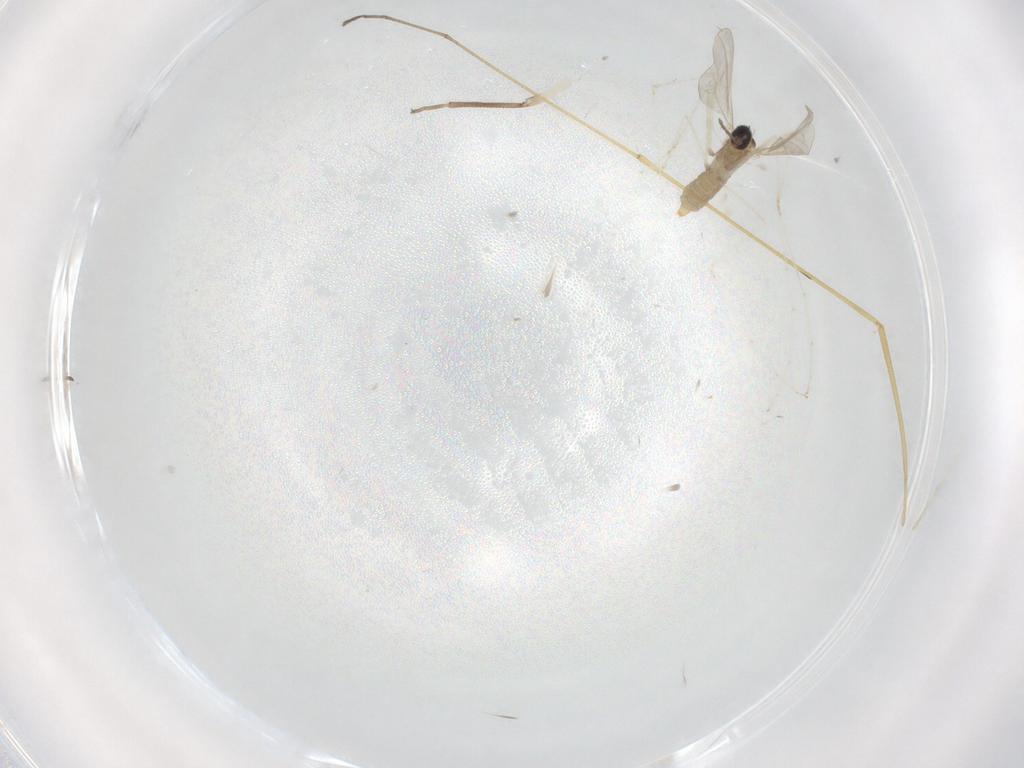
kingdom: Animalia
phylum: Arthropoda
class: Insecta
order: Diptera
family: Cecidomyiidae
